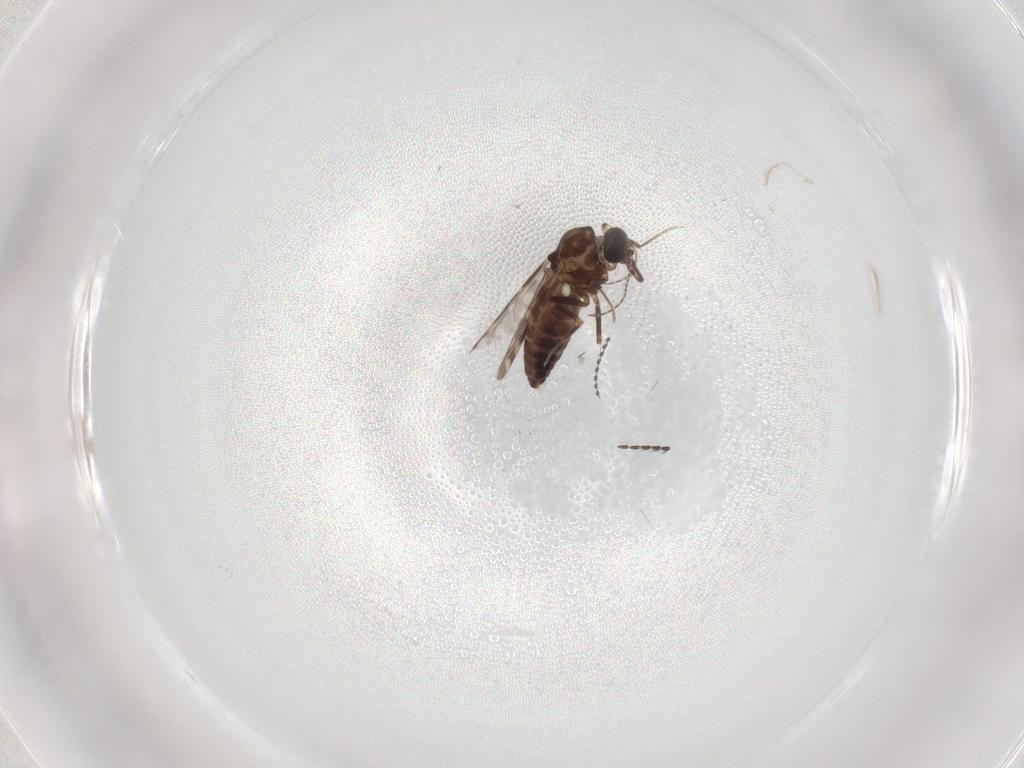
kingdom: Animalia
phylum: Arthropoda
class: Insecta
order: Diptera
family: Ceratopogonidae
